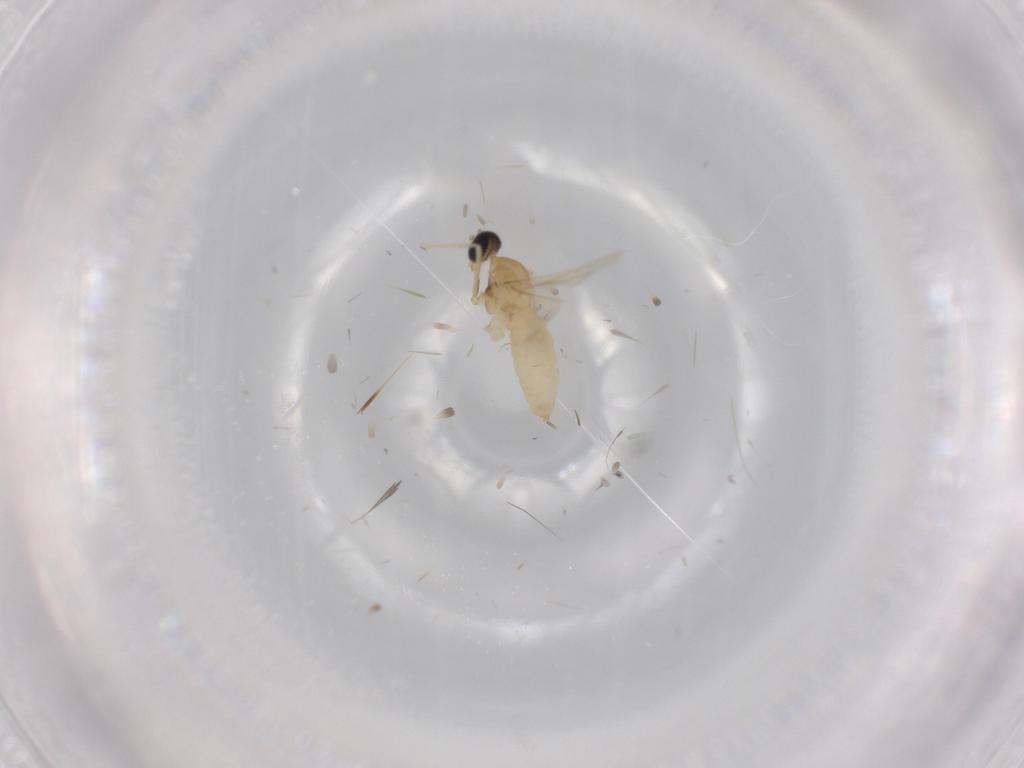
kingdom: Animalia
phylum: Arthropoda
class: Insecta
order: Diptera
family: Cecidomyiidae
